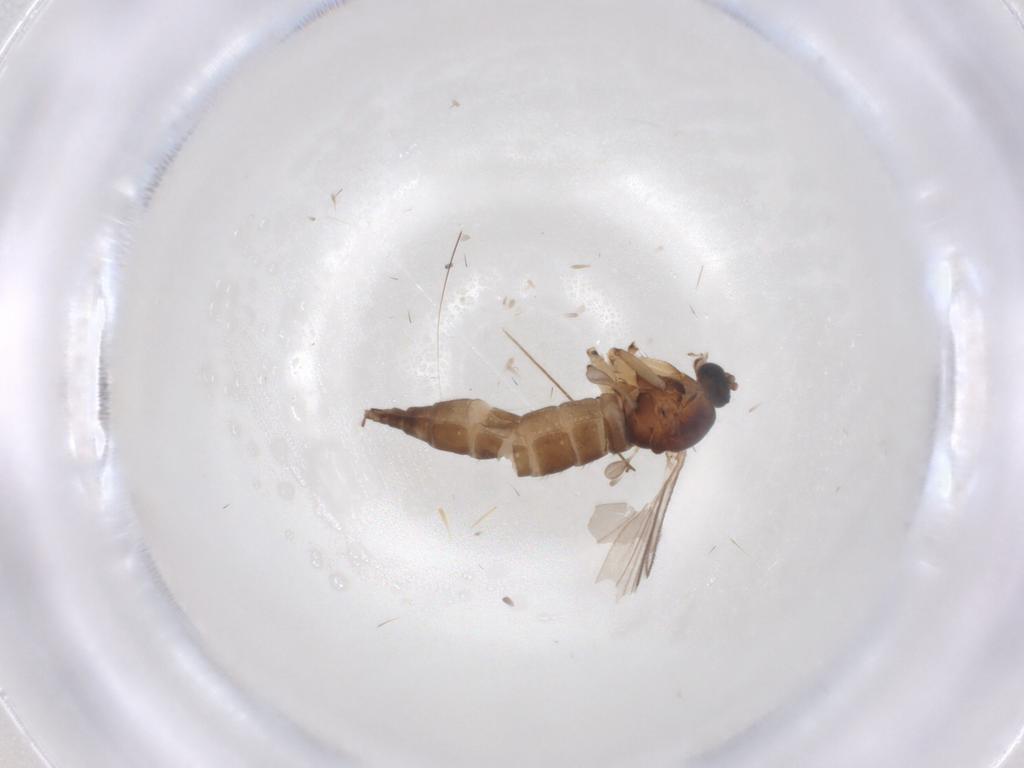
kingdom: Animalia
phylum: Arthropoda
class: Insecta
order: Diptera
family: Sciaridae
